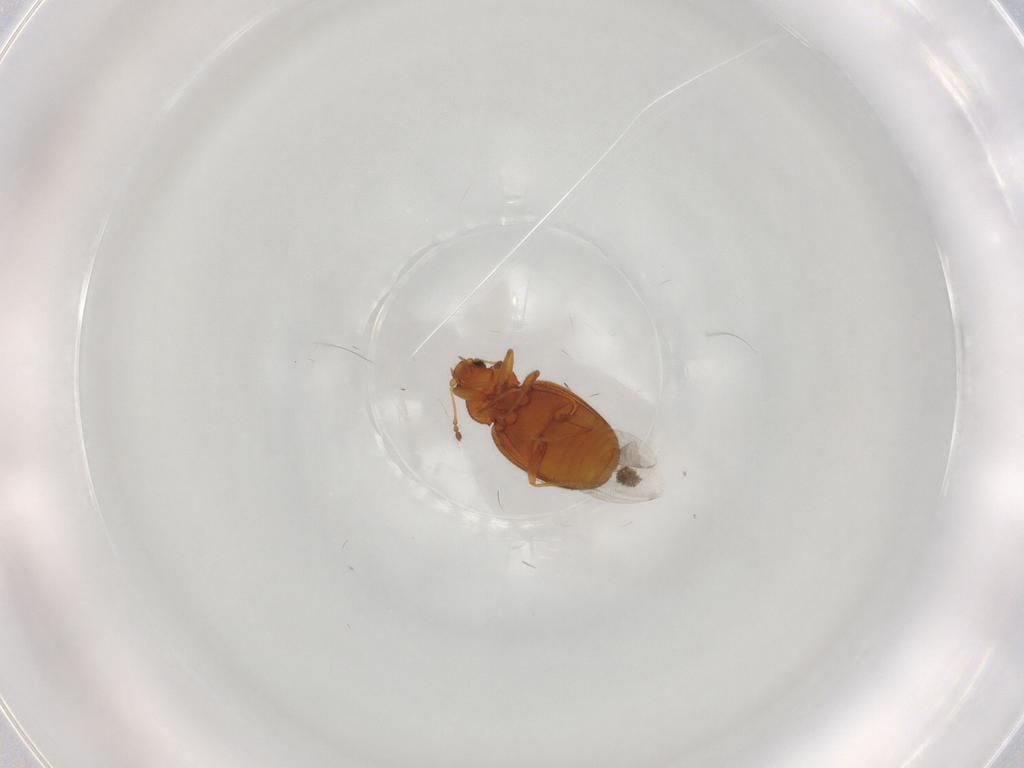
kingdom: Animalia
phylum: Arthropoda
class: Insecta
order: Coleoptera
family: Latridiidae
